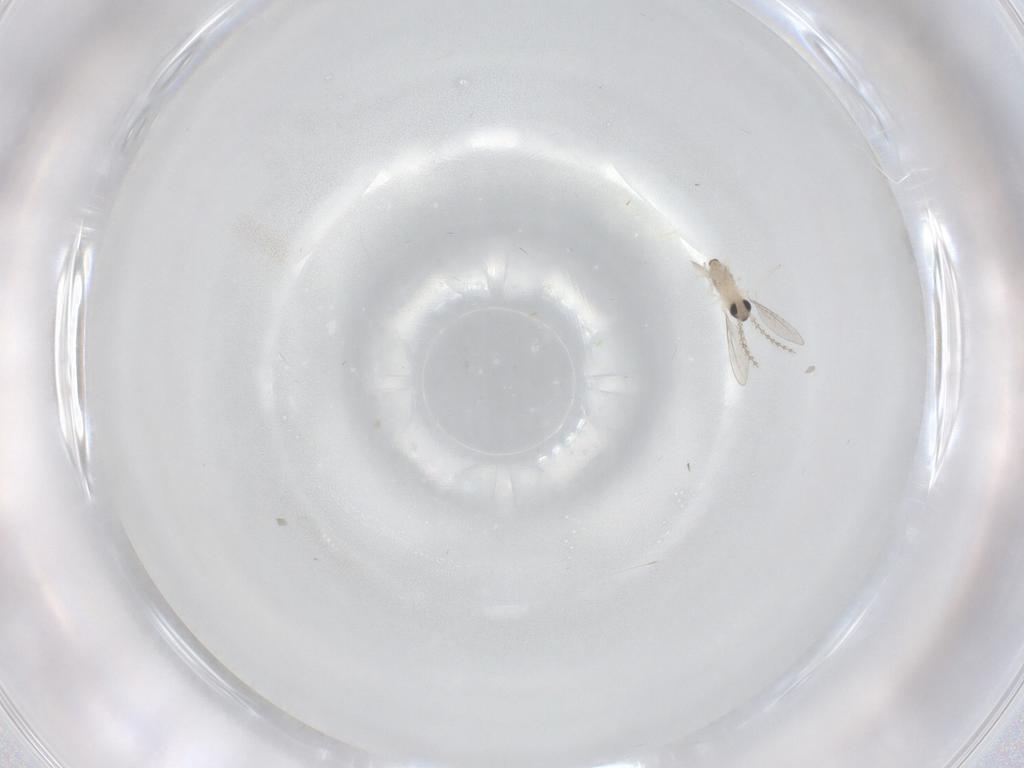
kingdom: Animalia
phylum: Arthropoda
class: Insecta
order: Diptera
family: Cecidomyiidae
